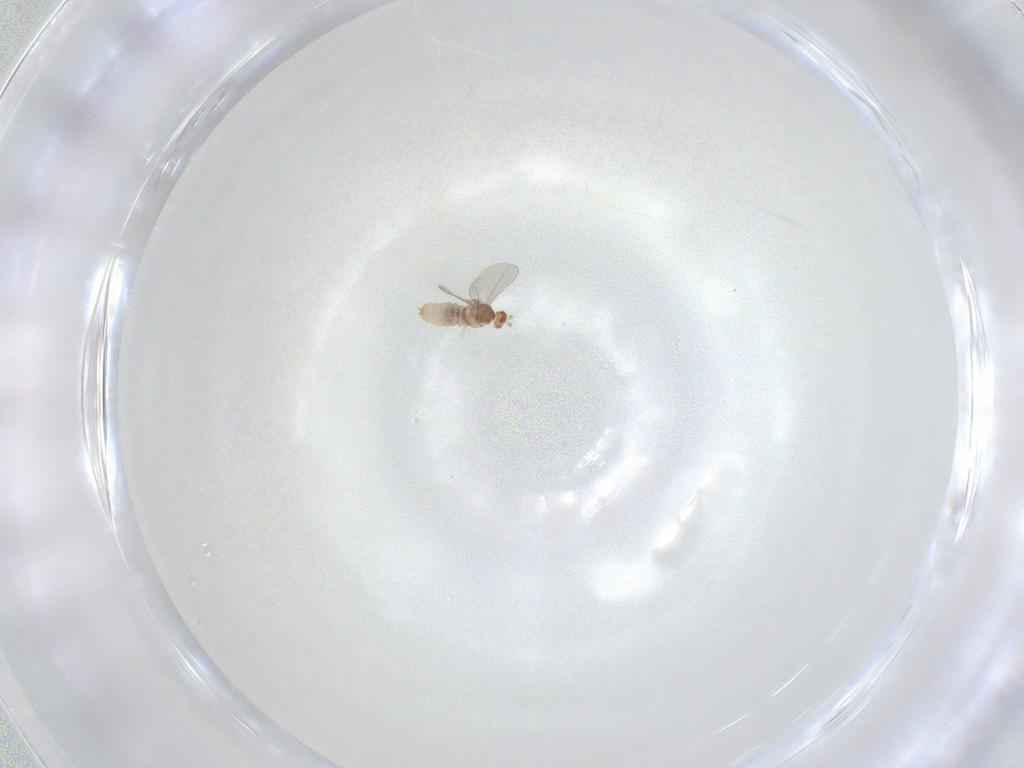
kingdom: Animalia
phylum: Arthropoda
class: Insecta
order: Diptera
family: Cecidomyiidae
